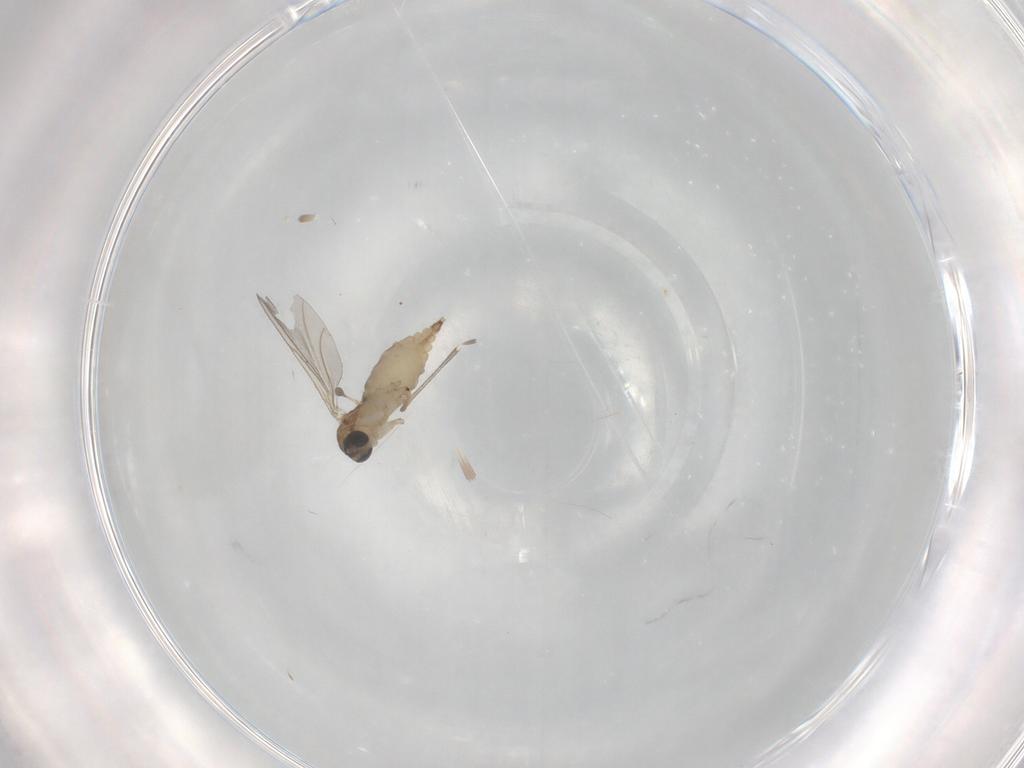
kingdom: Animalia
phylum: Arthropoda
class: Insecta
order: Diptera
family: Sciaridae
